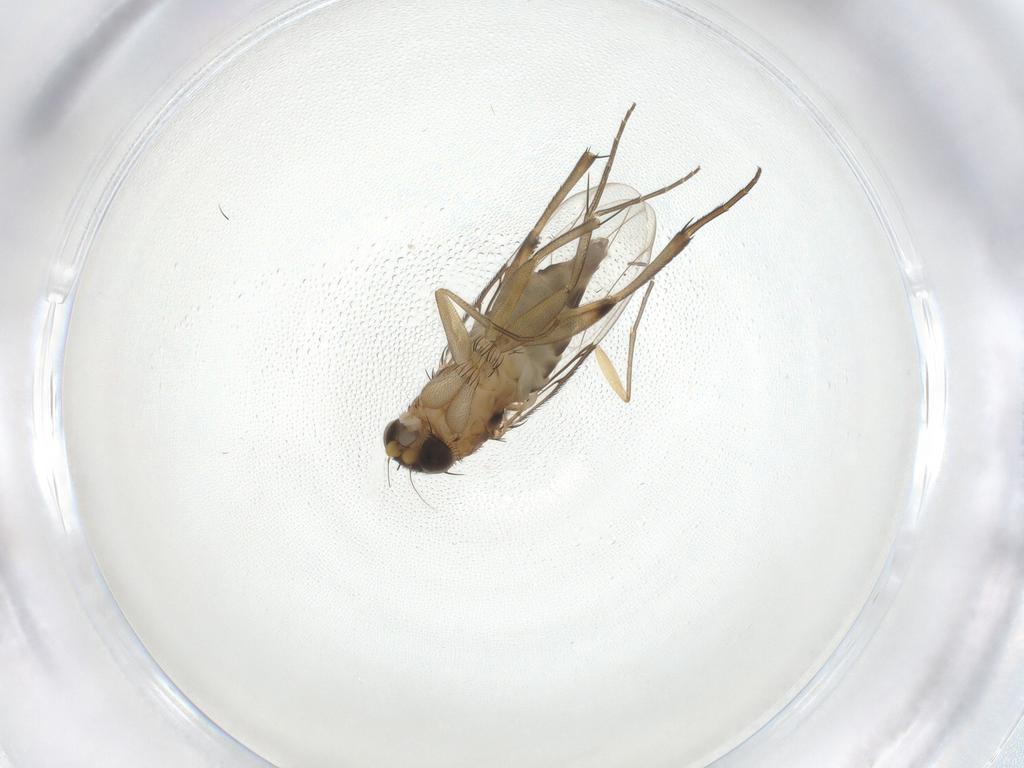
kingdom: Animalia
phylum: Arthropoda
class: Insecta
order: Diptera
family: Phoridae
